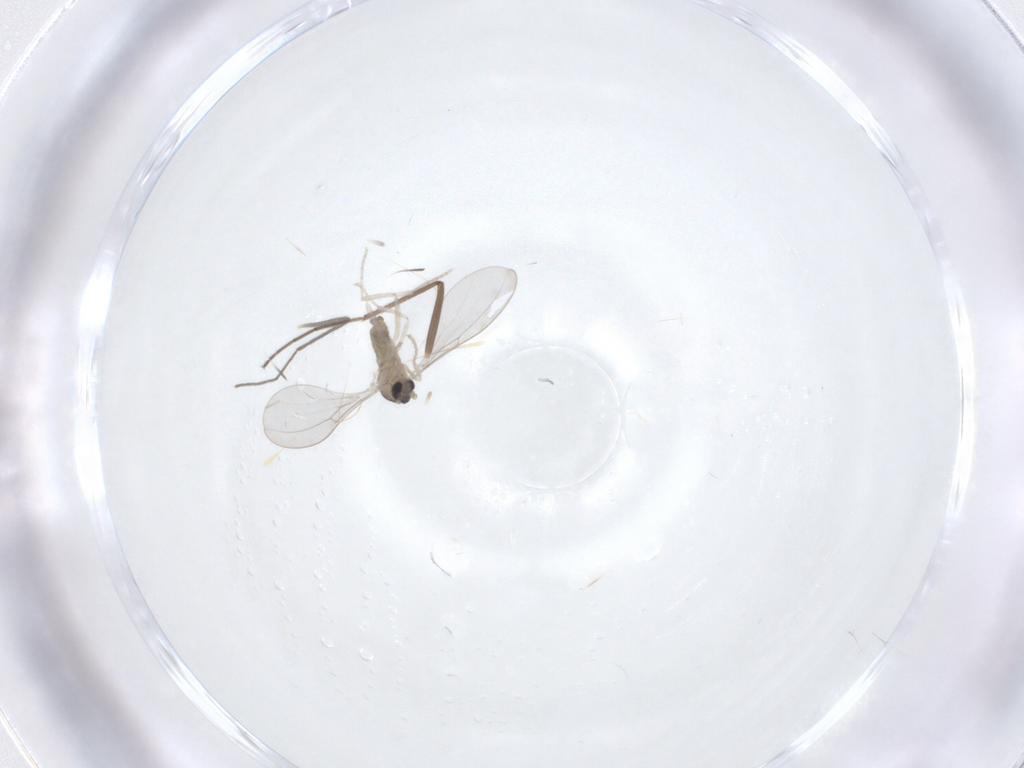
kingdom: Animalia
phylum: Arthropoda
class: Insecta
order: Diptera
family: Cecidomyiidae
